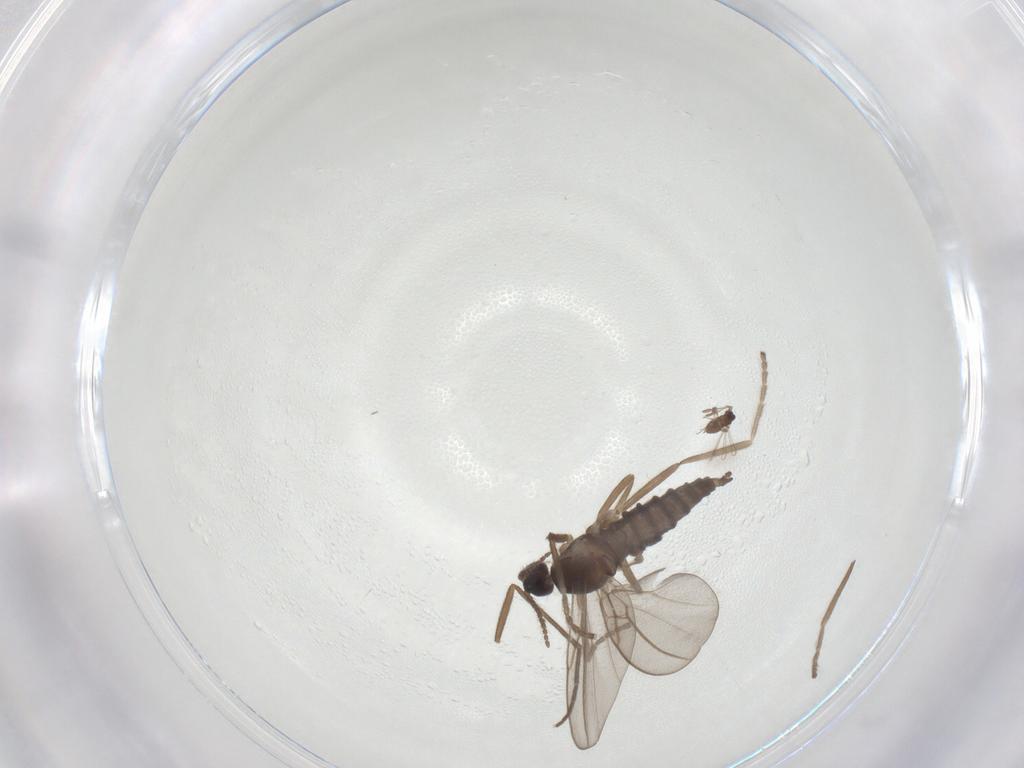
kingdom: Animalia
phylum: Arthropoda
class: Insecta
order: Diptera
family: Cecidomyiidae
